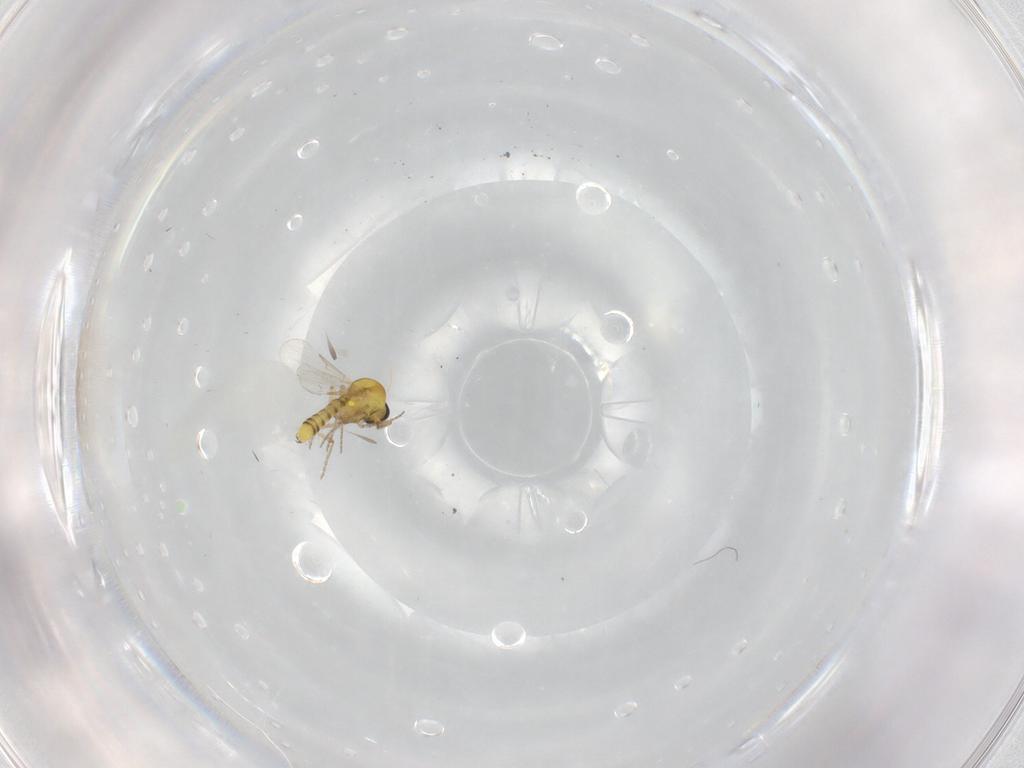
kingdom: Animalia
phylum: Arthropoda
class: Insecta
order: Diptera
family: Ceratopogonidae
